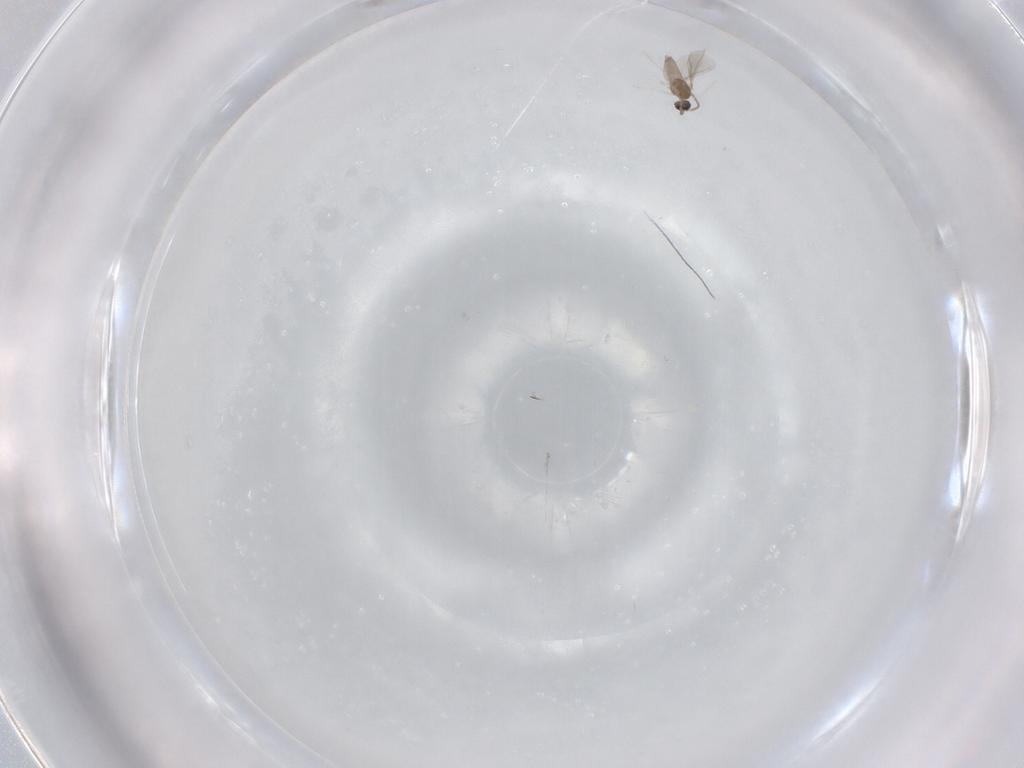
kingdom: Animalia
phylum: Arthropoda
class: Insecta
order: Diptera
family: Cecidomyiidae
